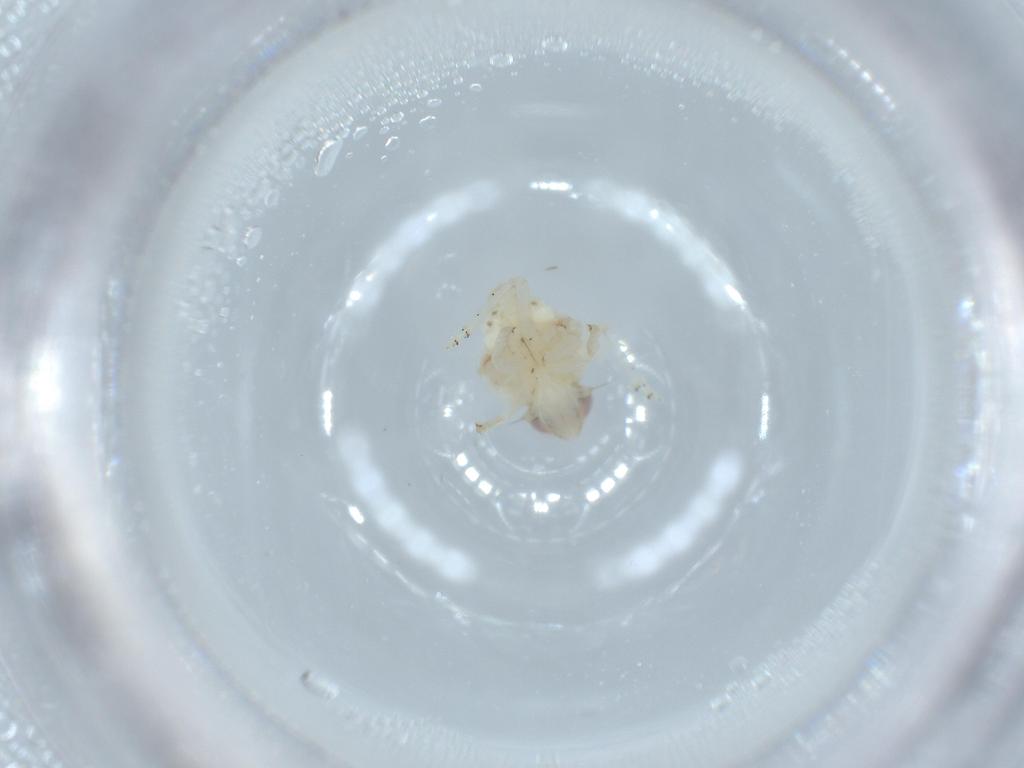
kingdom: Animalia
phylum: Arthropoda
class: Insecta
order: Hemiptera
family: Nogodinidae
